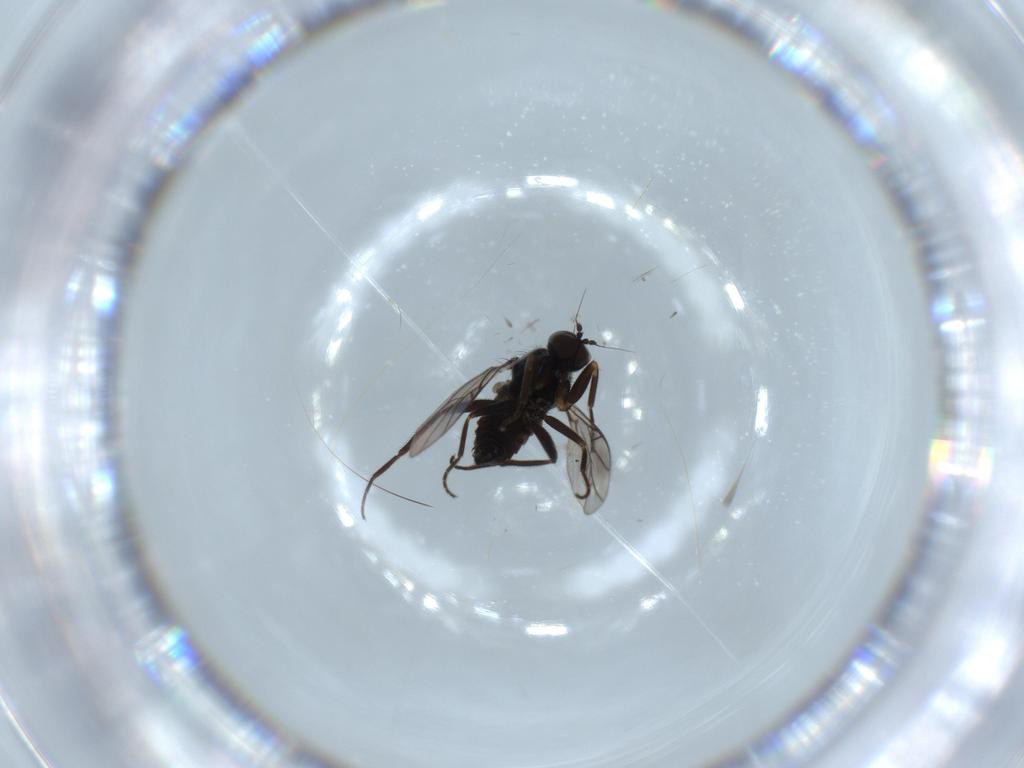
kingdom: Animalia
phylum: Arthropoda
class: Insecta
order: Diptera
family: Hybotidae
